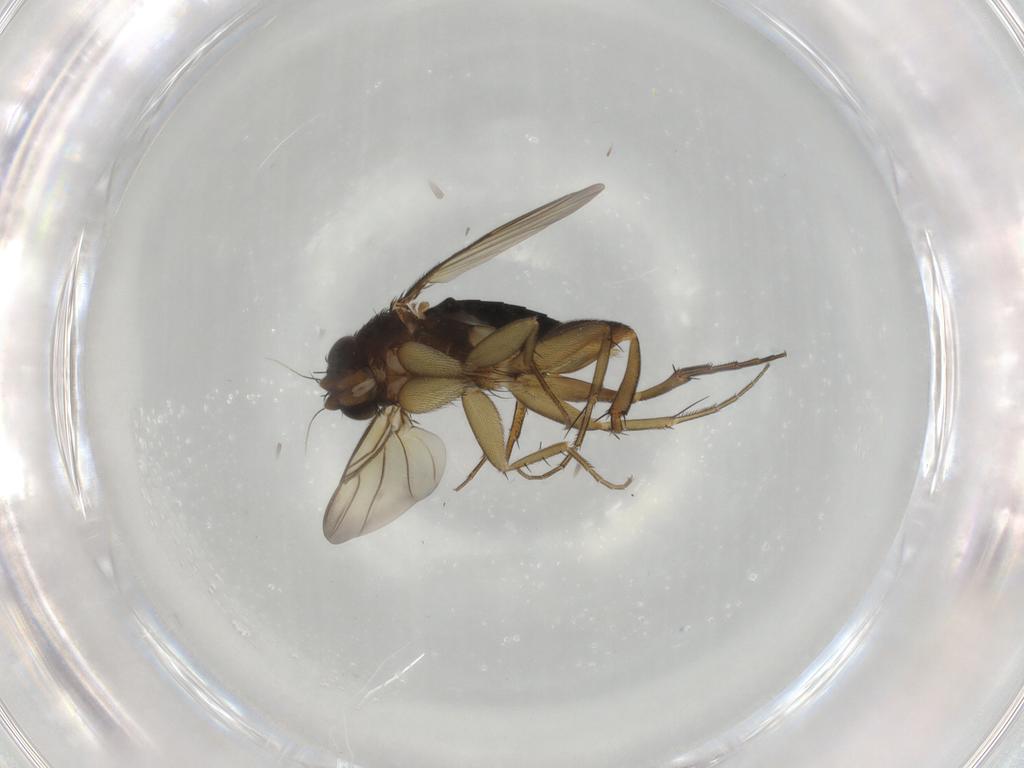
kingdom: Animalia
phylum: Arthropoda
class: Insecta
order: Diptera
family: Phoridae
